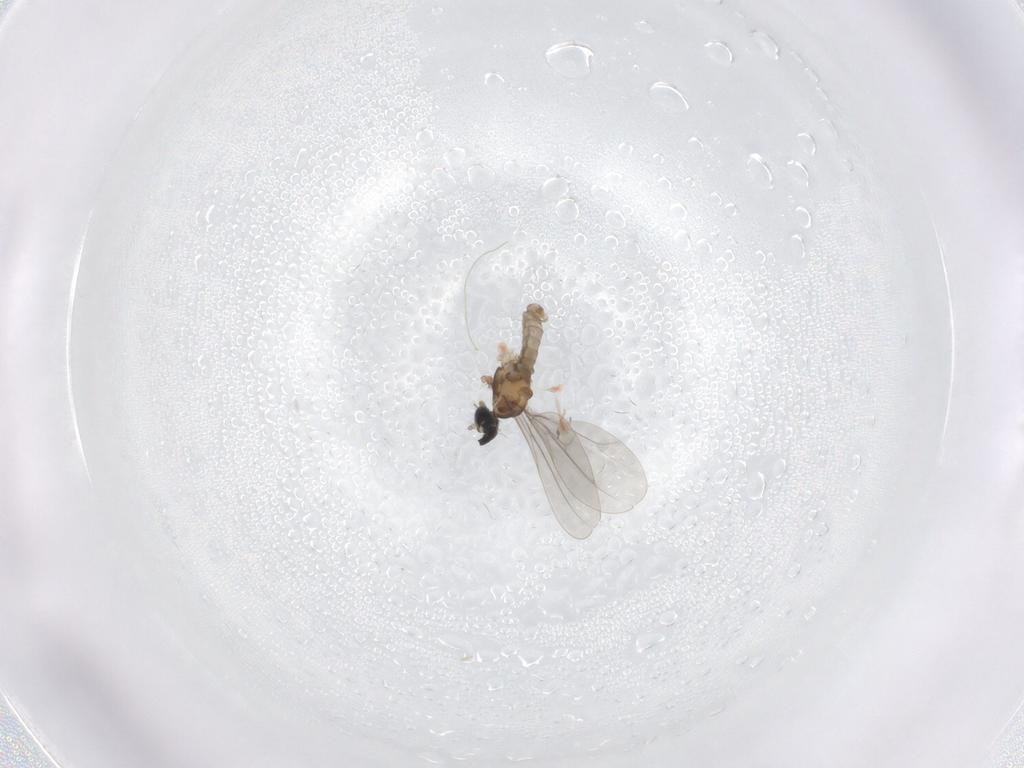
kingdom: Animalia
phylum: Arthropoda
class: Insecta
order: Diptera
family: Cecidomyiidae
